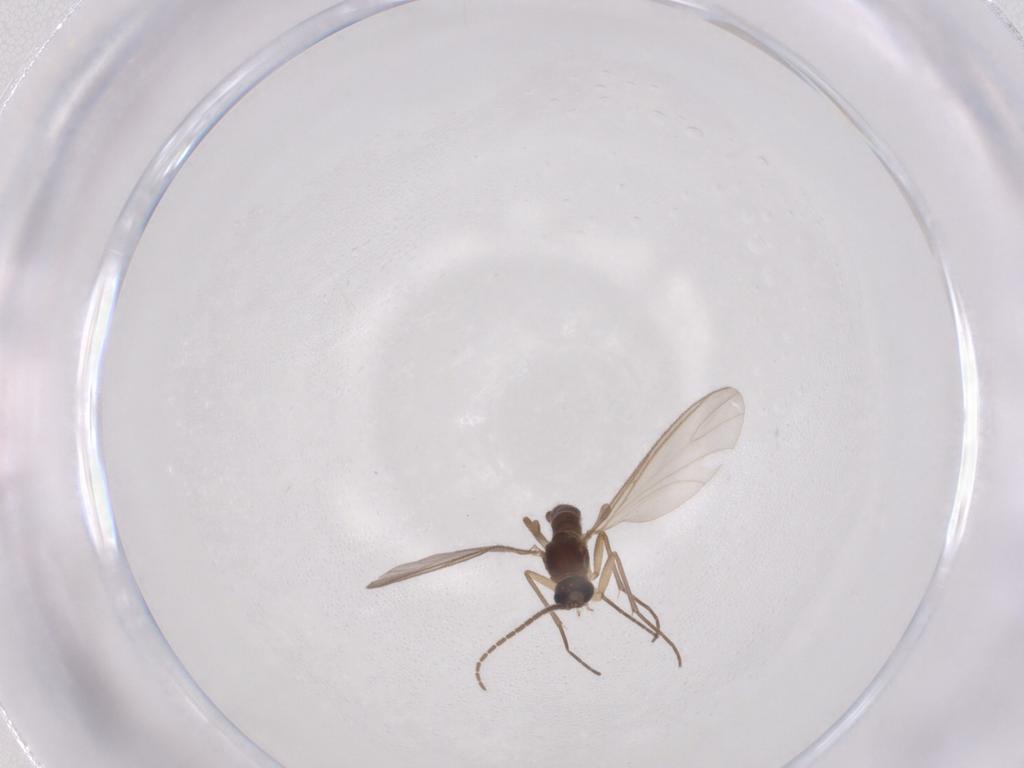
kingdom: Animalia
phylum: Arthropoda
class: Insecta
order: Diptera
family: Sciaridae
